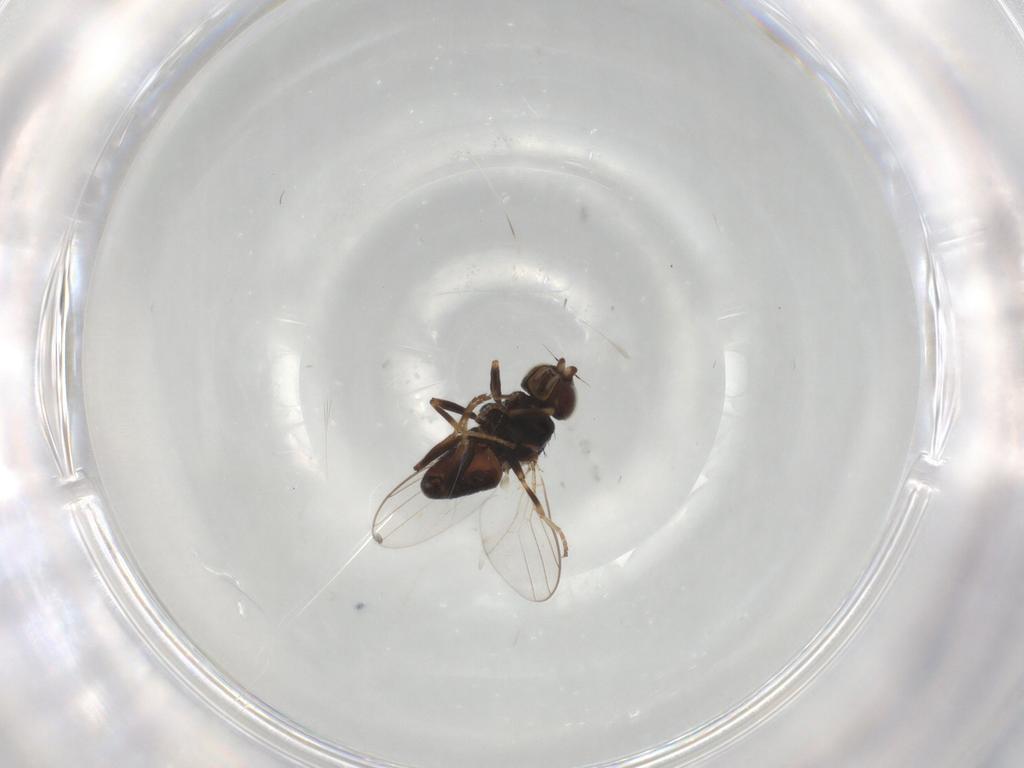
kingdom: Animalia
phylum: Arthropoda
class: Insecta
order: Diptera
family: Chloropidae
